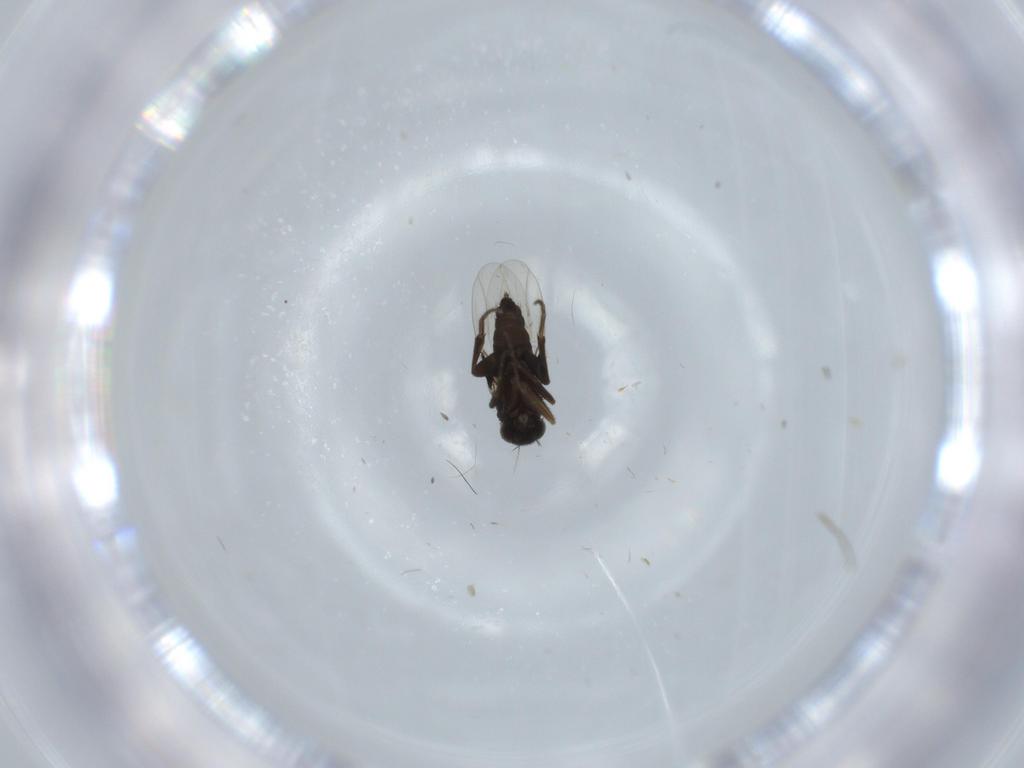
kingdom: Animalia
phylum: Arthropoda
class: Insecta
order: Diptera
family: Phoridae
